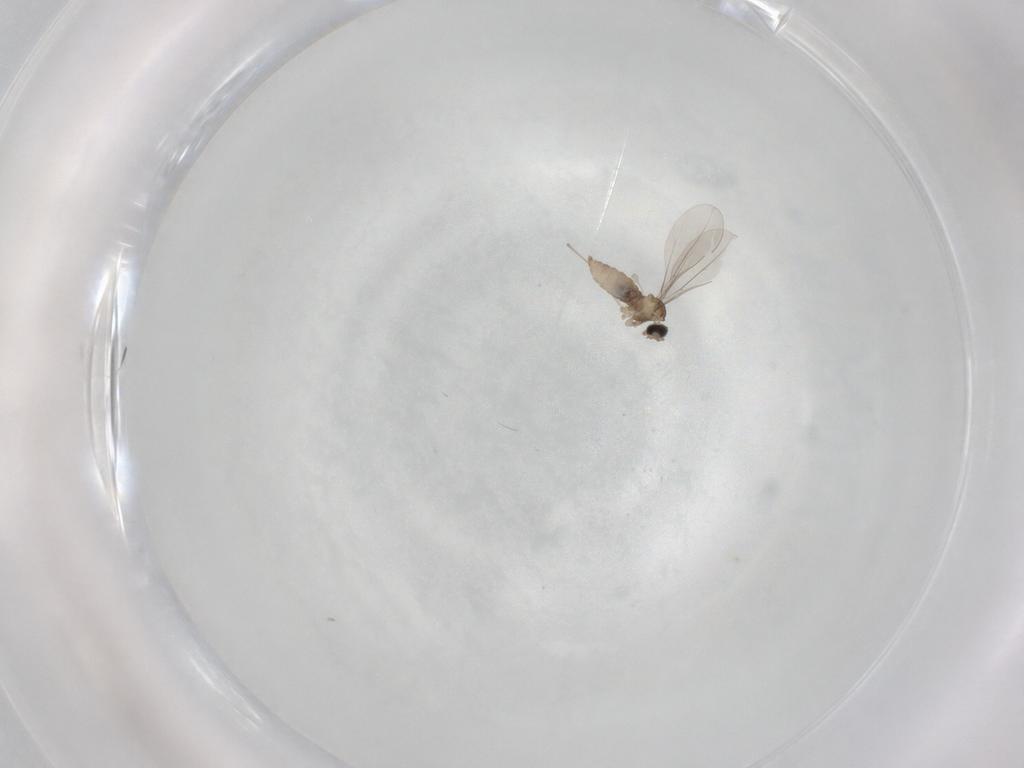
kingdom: Animalia
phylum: Arthropoda
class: Insecta
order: Diptera
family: Cecidomyiidae
